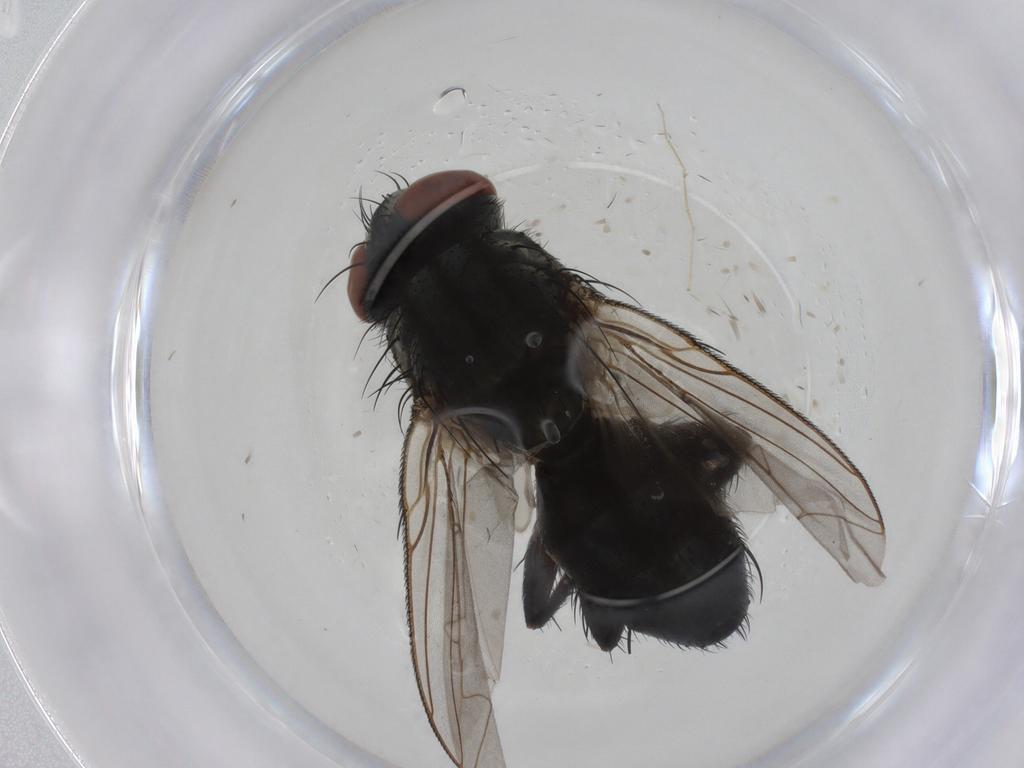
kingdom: Animalia
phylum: Arthropoda
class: Insecta
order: Diptera
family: Sarcophagidae
